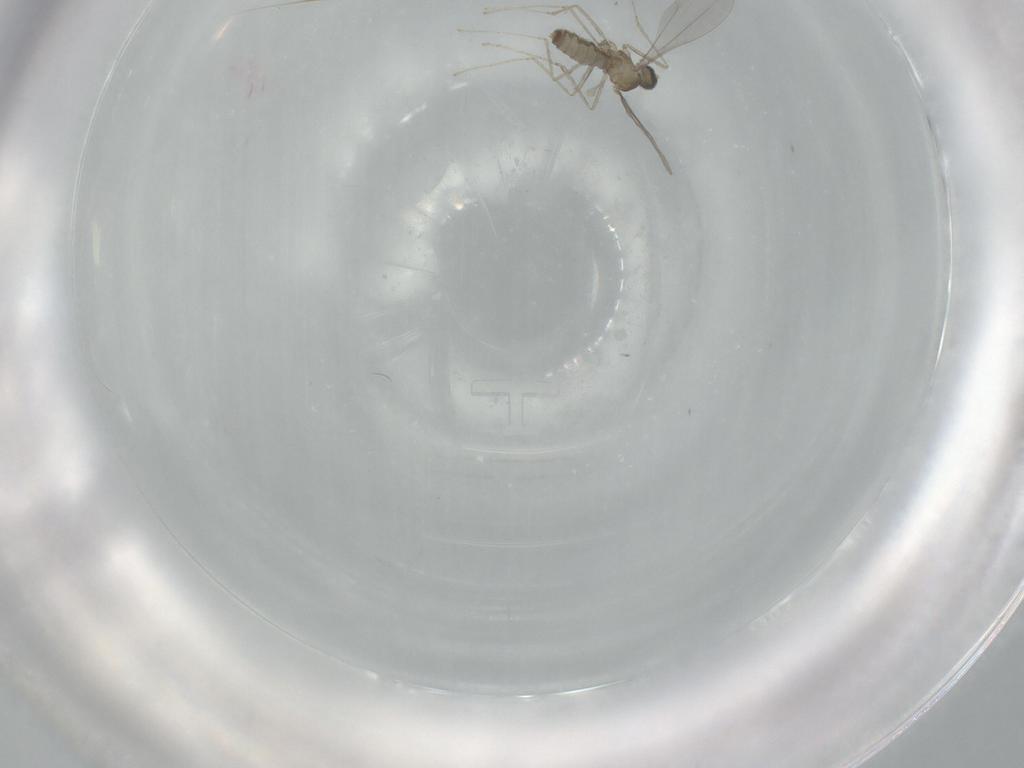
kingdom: Animalia
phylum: Arthropoda
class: Insecta
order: Diptera
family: Cecidomyiidae
